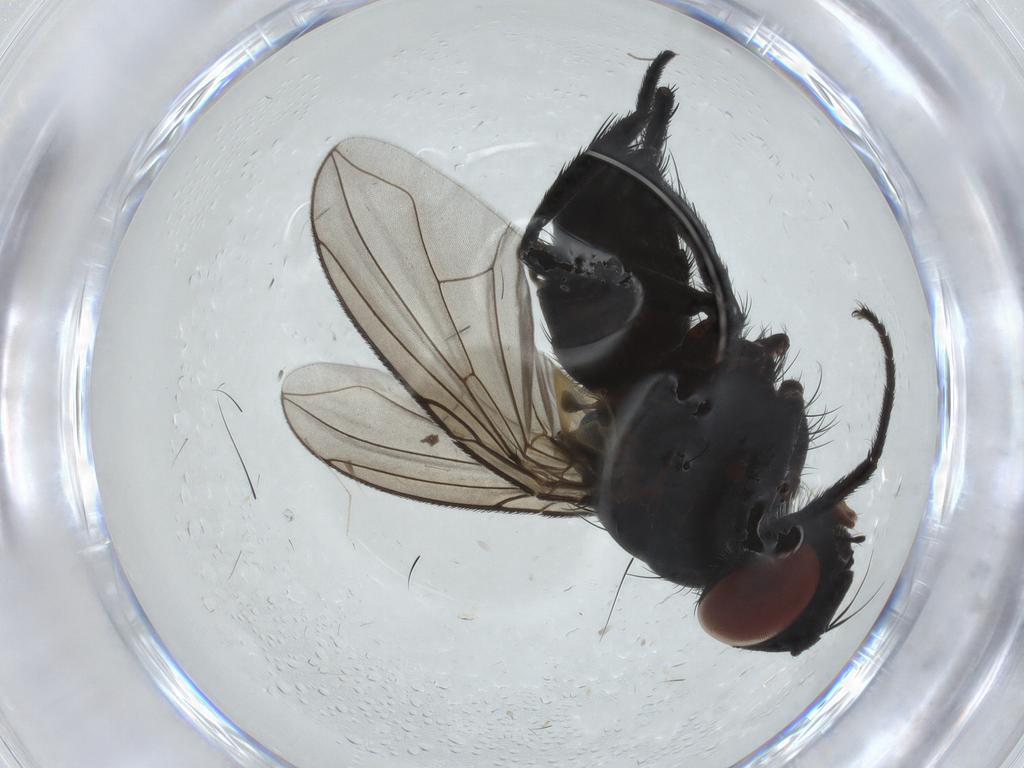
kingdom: Animalia
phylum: Arthropoda
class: Insecta
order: Diptera
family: Tachinidae
